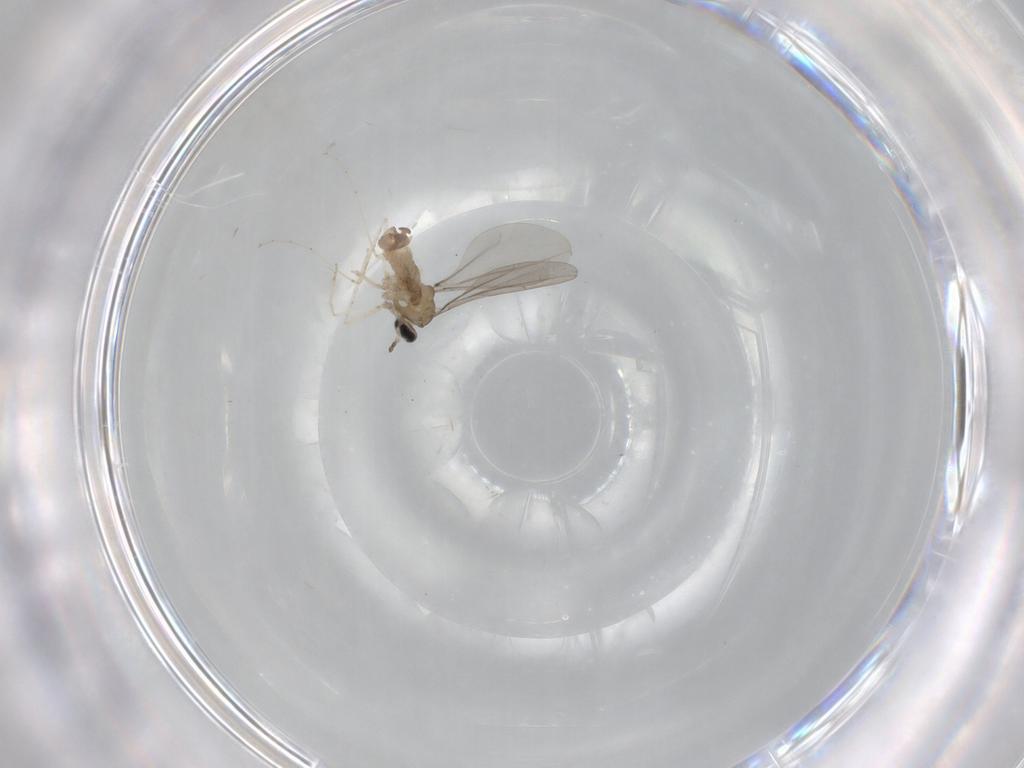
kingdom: Animalia
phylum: Arthropoda
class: Insecta
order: Diptera
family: Cecidomyiidae
